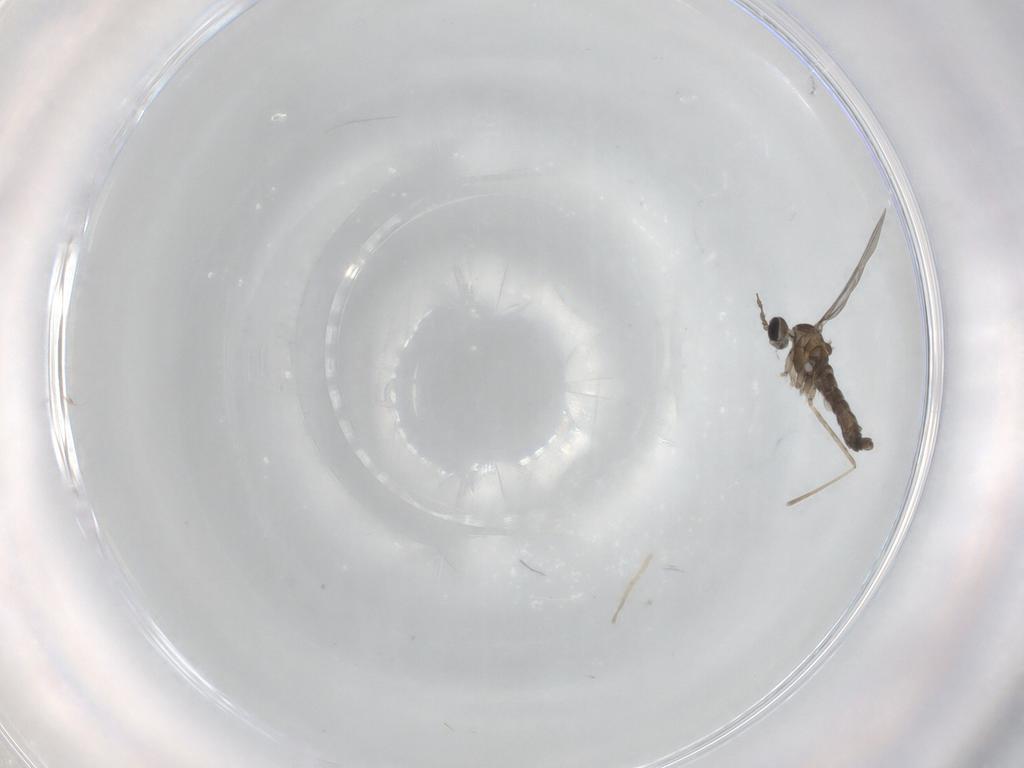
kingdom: Animalia
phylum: Arthropoda
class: Insecta
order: Diptera
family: Cecidomyiidae
